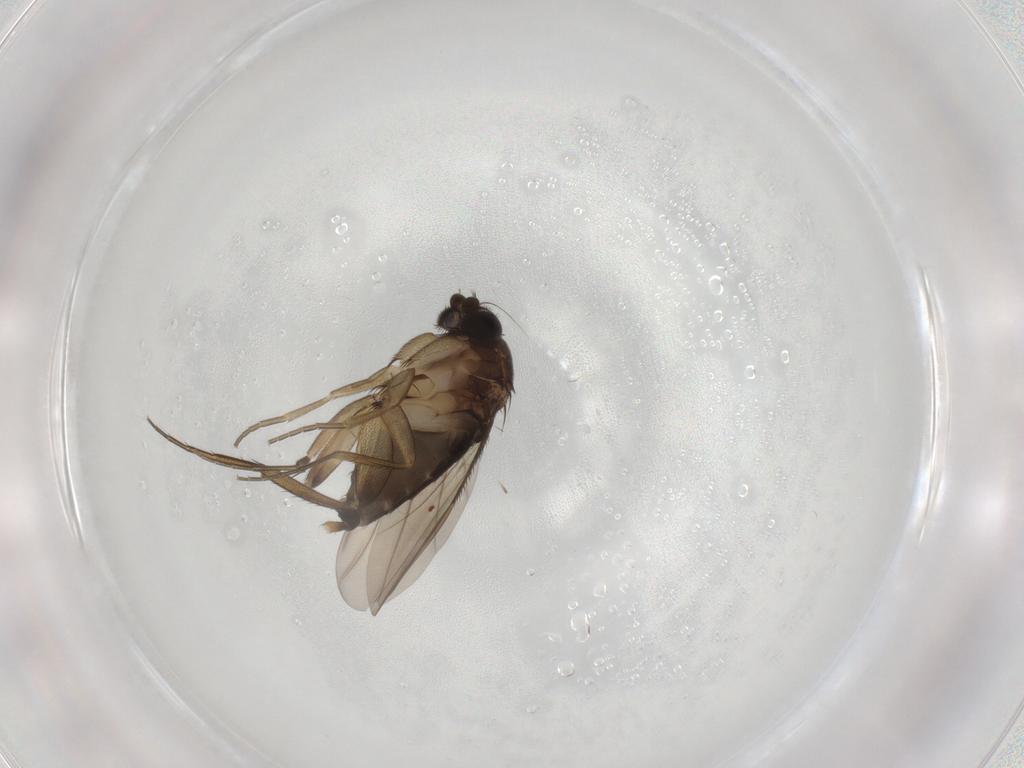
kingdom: Animalia
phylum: Arthropoda
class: Insecta
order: Diptera
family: Phoridae
